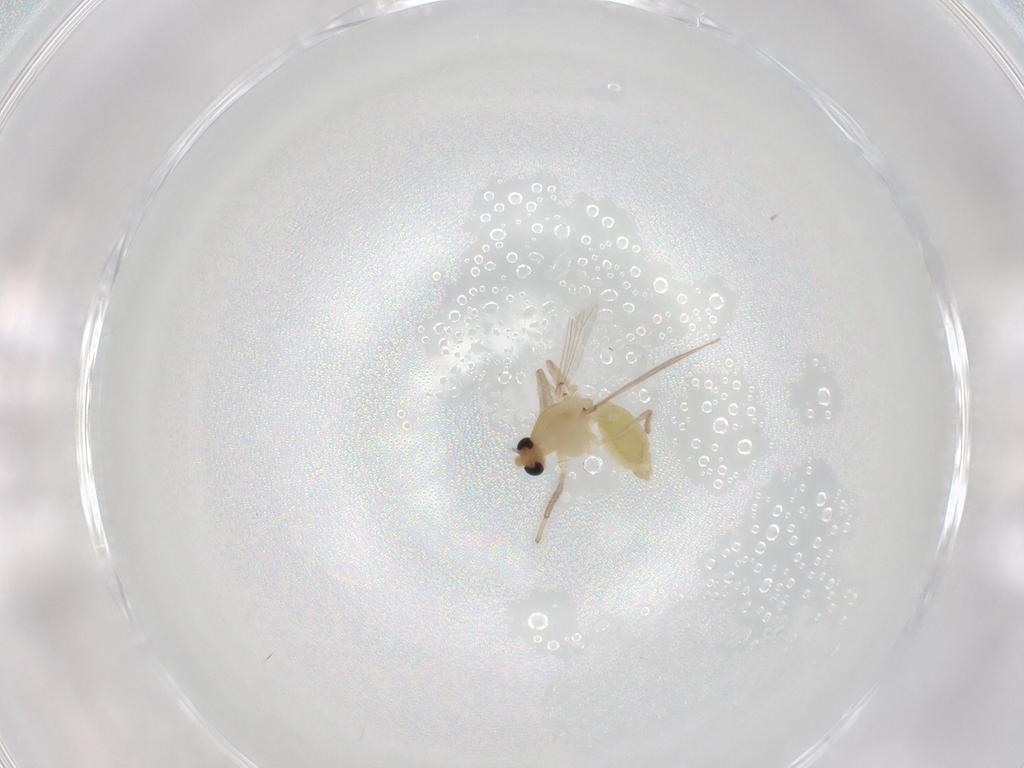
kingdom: Animalia
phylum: Arthropoda
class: Insecta
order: Diptera
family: Chironomidae
